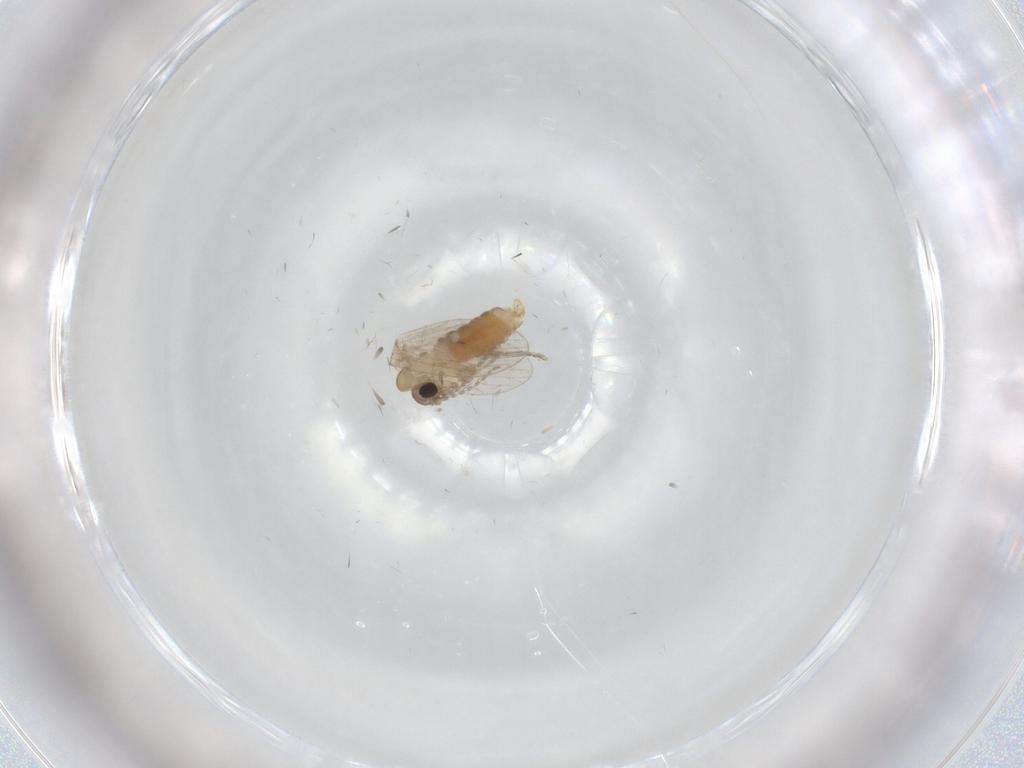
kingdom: Animalia
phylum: Arthropoda
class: Insecta
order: Diptera
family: Psychodidae
